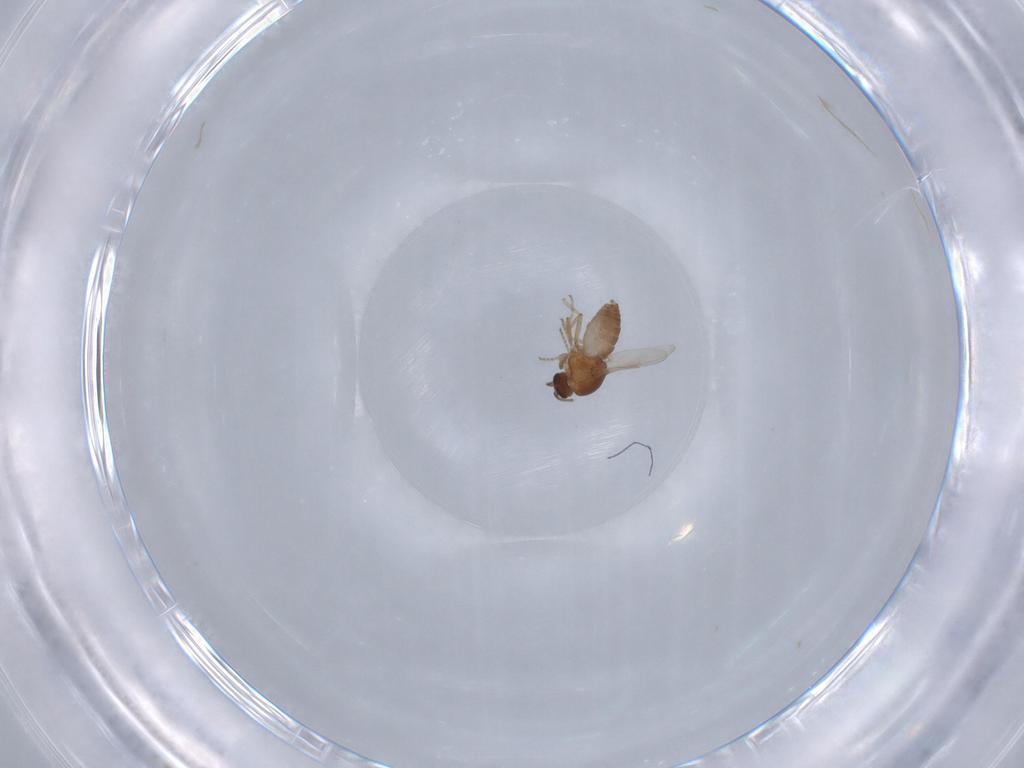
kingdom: Animalia
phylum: Arthropoda
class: Insecta
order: Diptera
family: Ceratopogonidae
